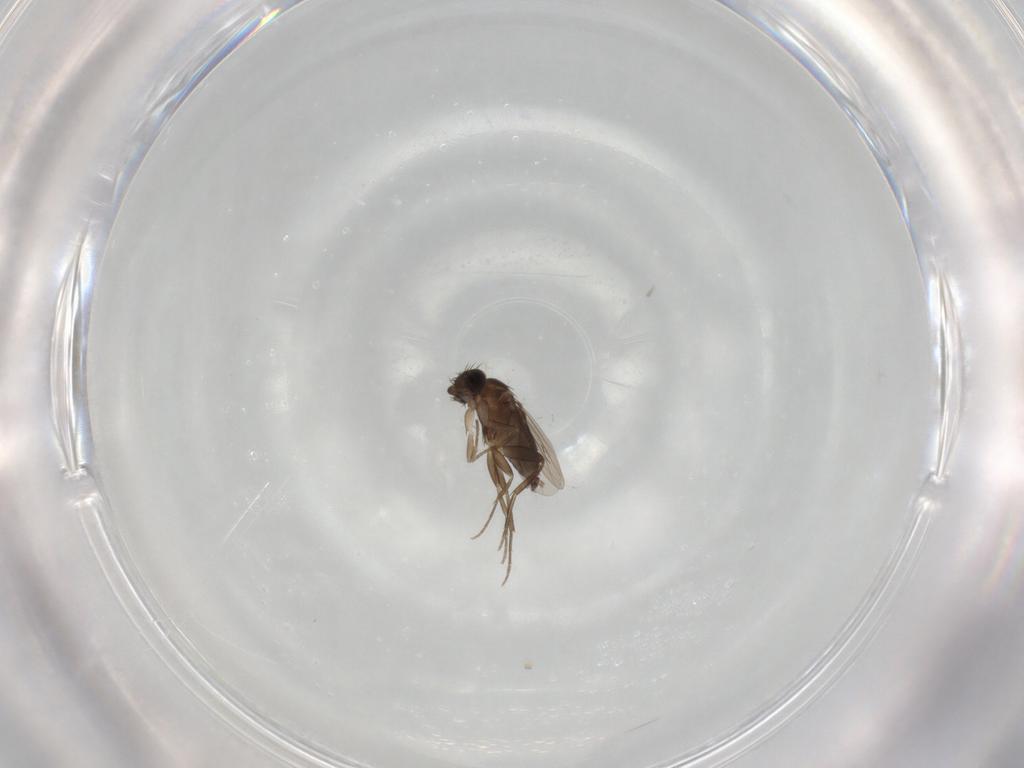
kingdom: Animalia
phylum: Arthropoda
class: Insecta
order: Diptera
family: Phoridae
